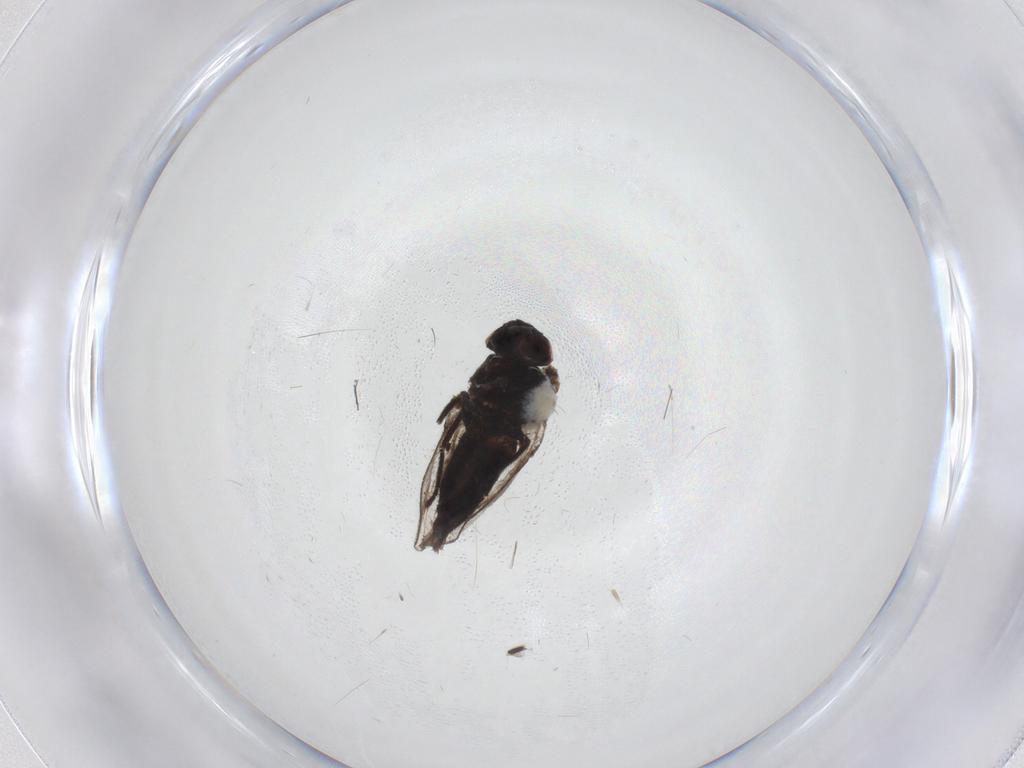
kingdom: Animalia
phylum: Arthropoda
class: Insecta
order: Diptera
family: Sciaridae
